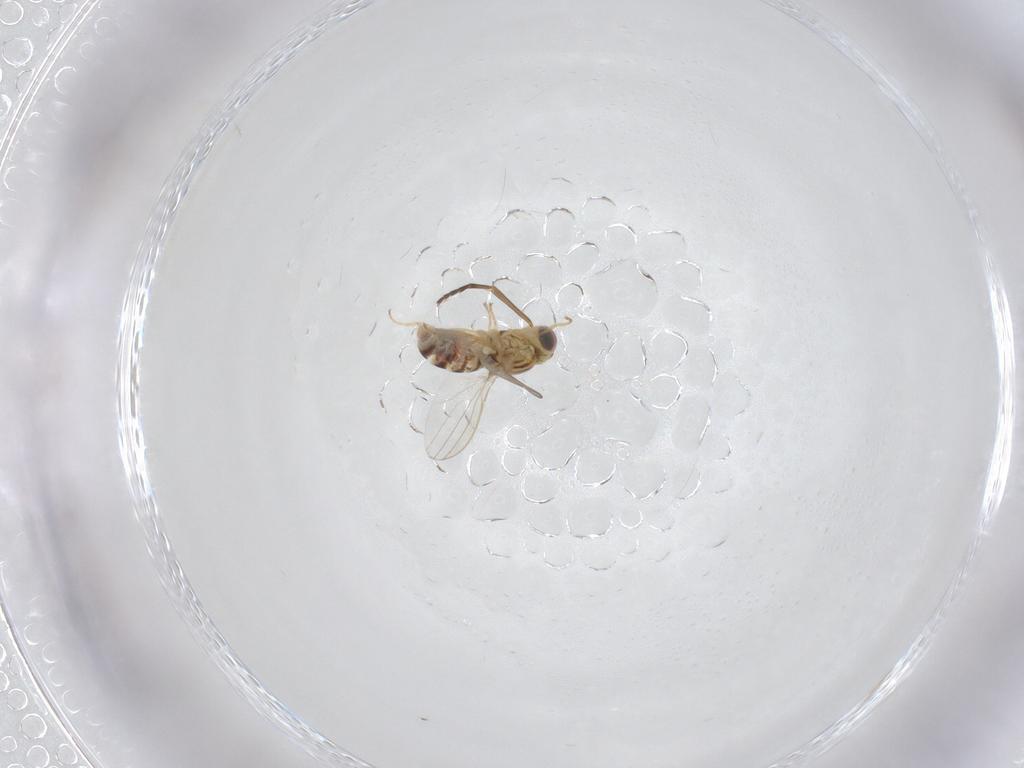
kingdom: Animalia
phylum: Arthropoda
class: Insecta
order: Diptera
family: Chyromyidae
